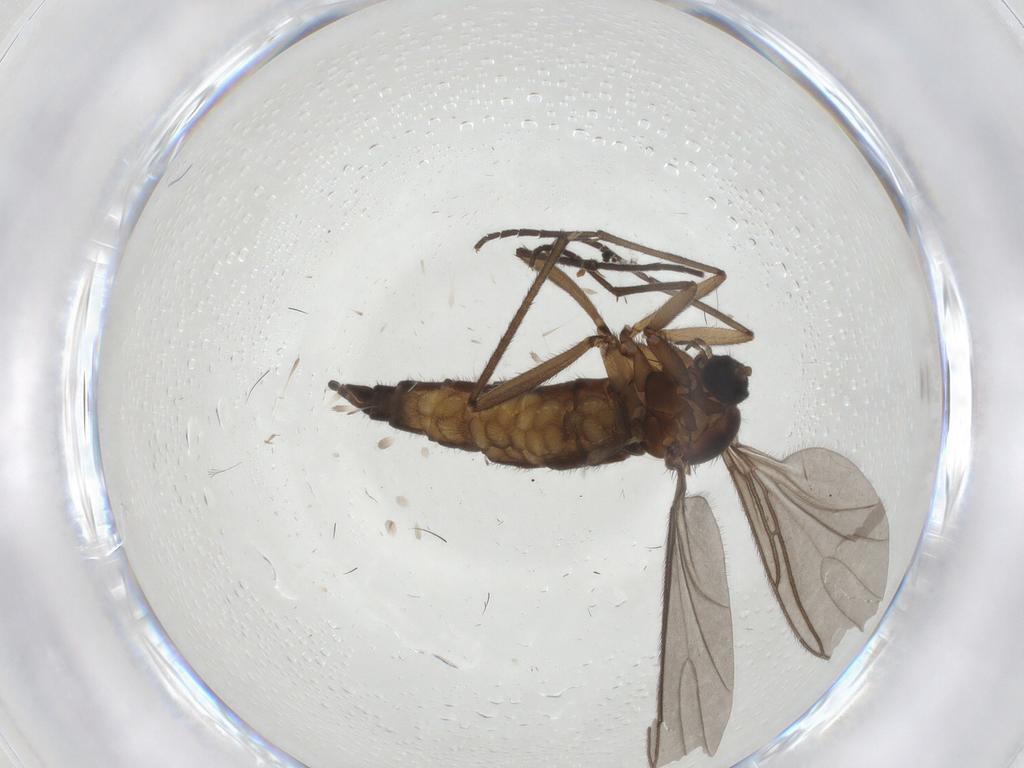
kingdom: Animalia
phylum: Arthropoda
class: Insecta
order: Diptera
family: Sciaridae
